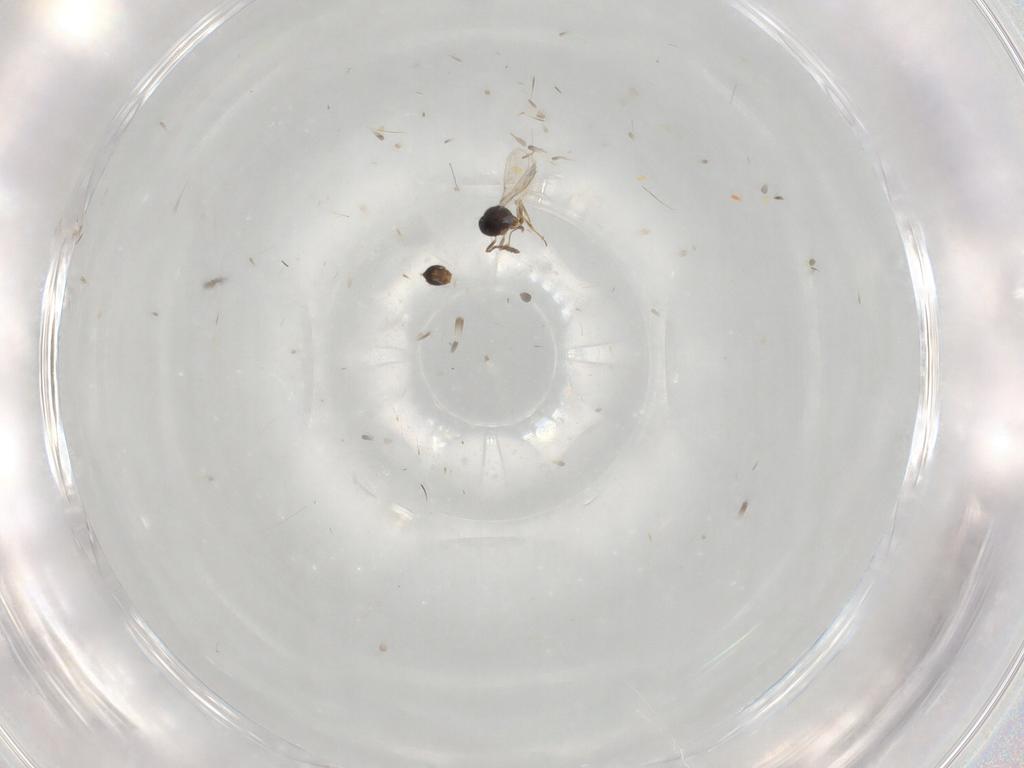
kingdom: Animalia
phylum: Arthropoda
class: Insecta
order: Hymenoptera
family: Scelionidae
